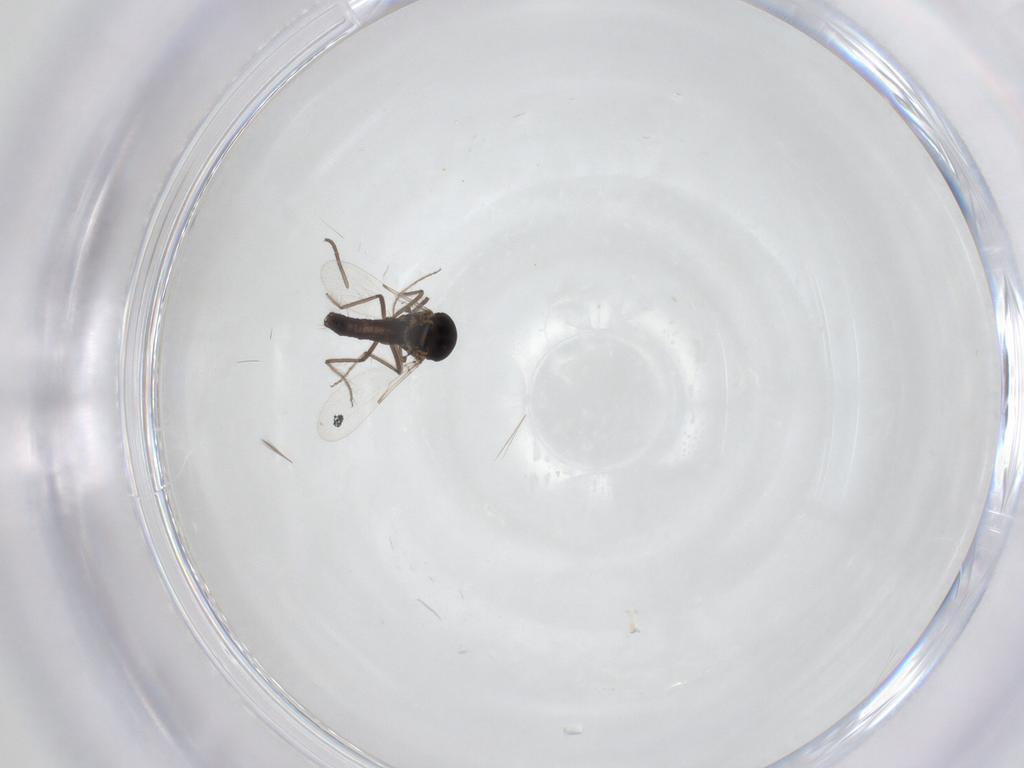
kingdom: Animalia
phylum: Arthropoda
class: Insecta
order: Diptera
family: Ceratopogonidae
